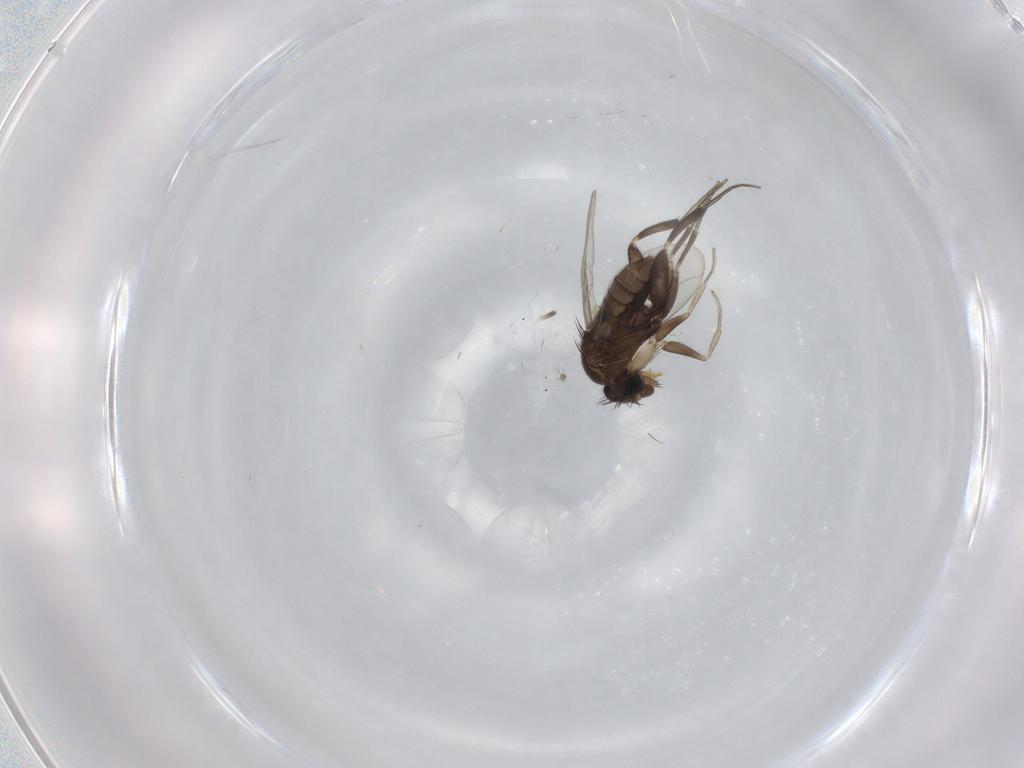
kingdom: Animalia
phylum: Arthropoda
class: Insecta
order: Diptera
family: Phoridae
